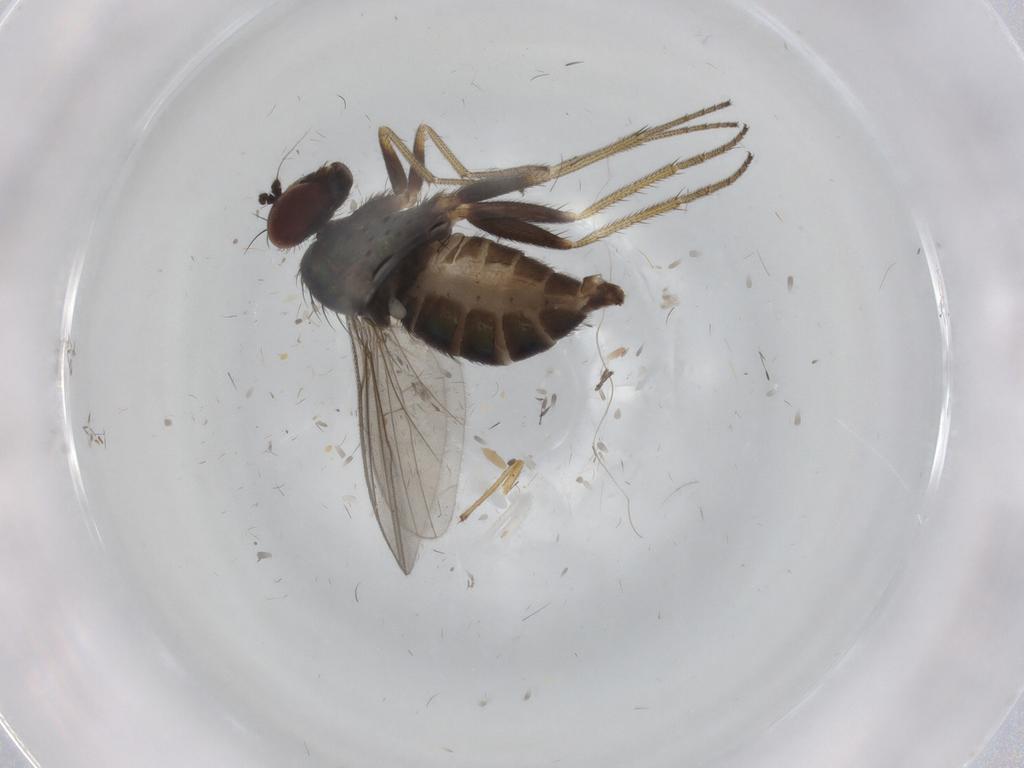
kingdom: Animalia
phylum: Arthropoda
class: Insecta
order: Diptera
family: Dolichopodidae
